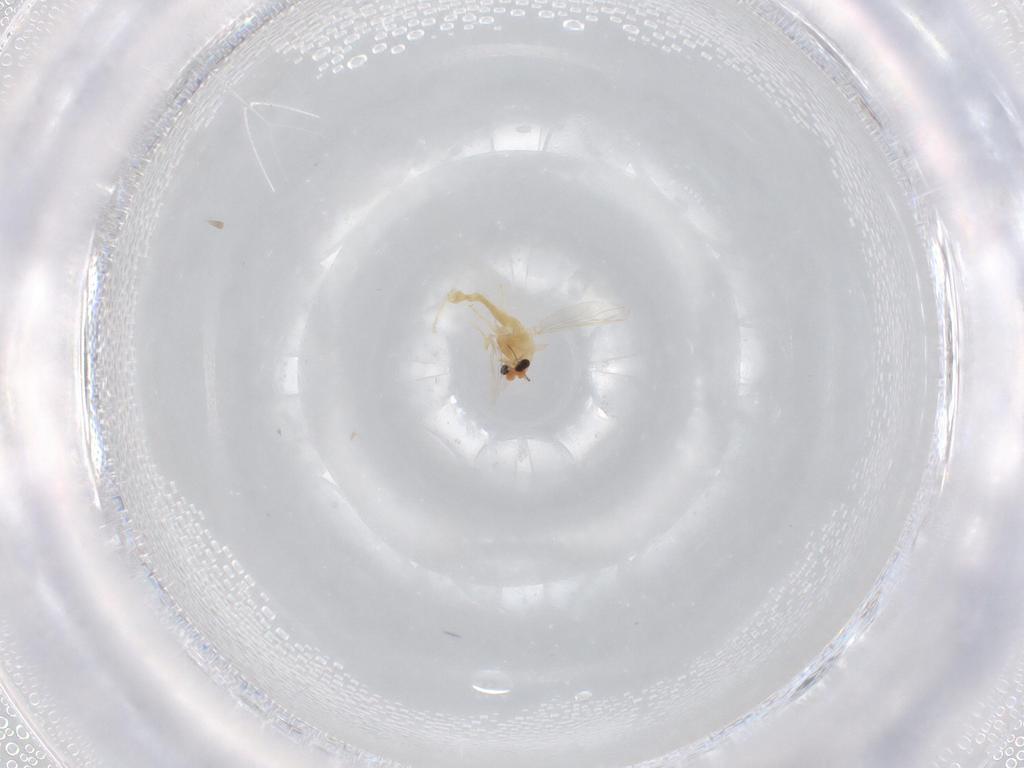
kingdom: Animalia
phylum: Arthropoda
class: Insecta
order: Diptera
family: Chironomidae
